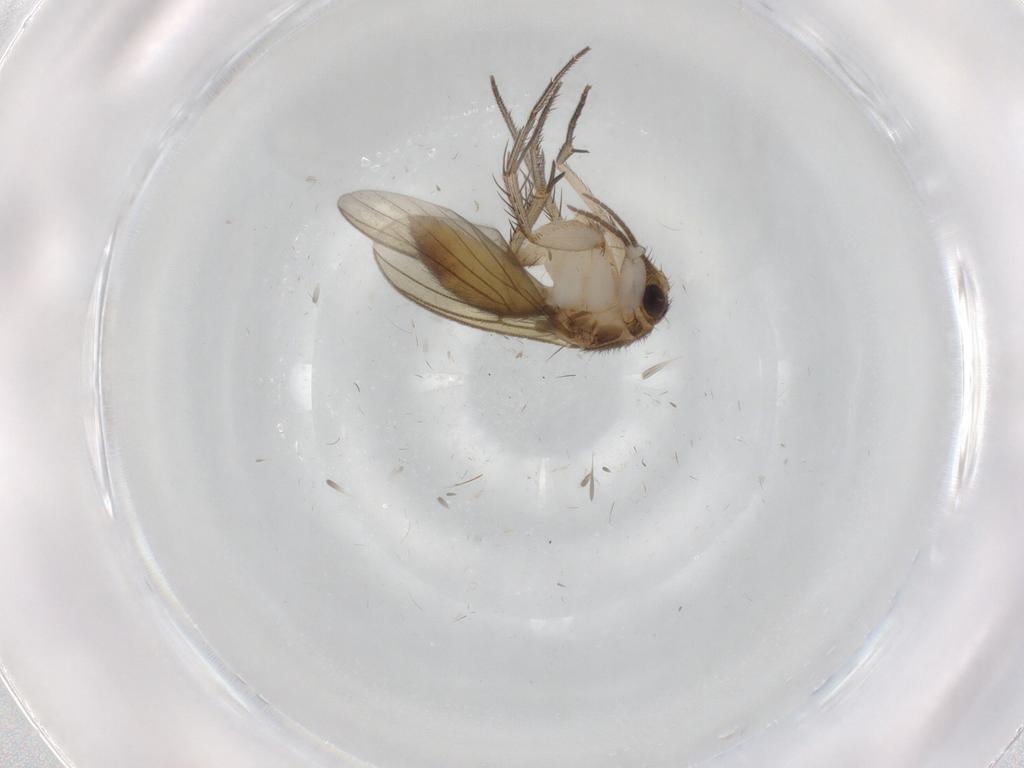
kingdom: Animalia
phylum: Arthropoda
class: Insecta
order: Diptera
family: Mycetophilidae
